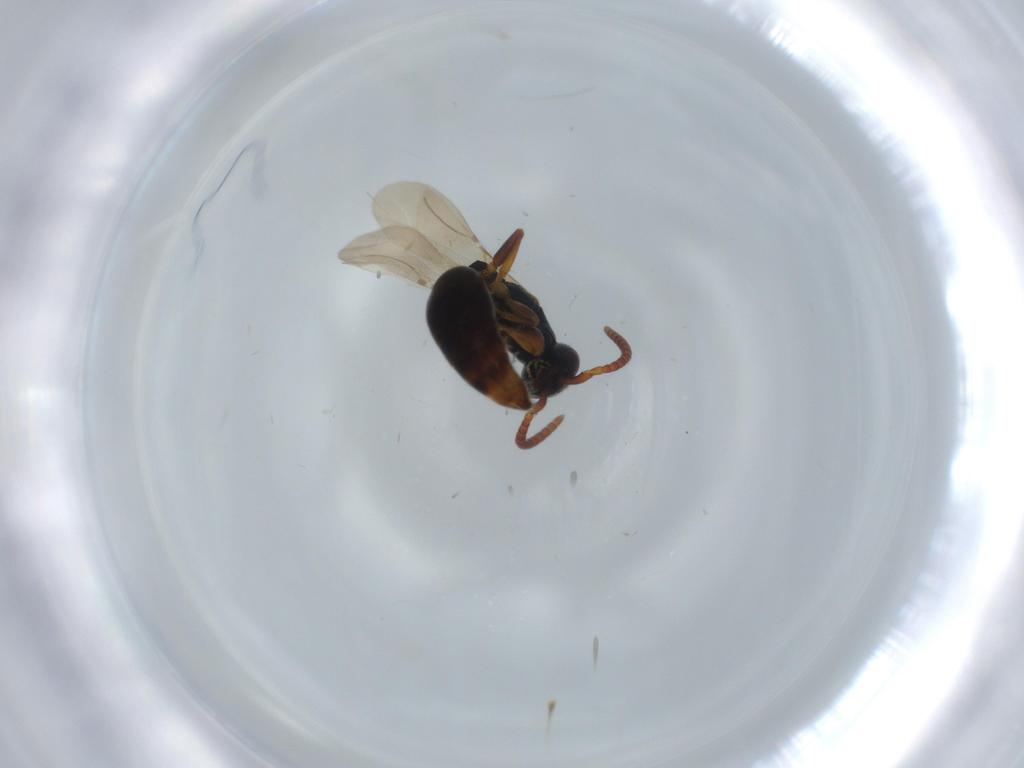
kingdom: Animalia
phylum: Arthropoda
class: Insecta
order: Hymenoptera
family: Bethylidae
